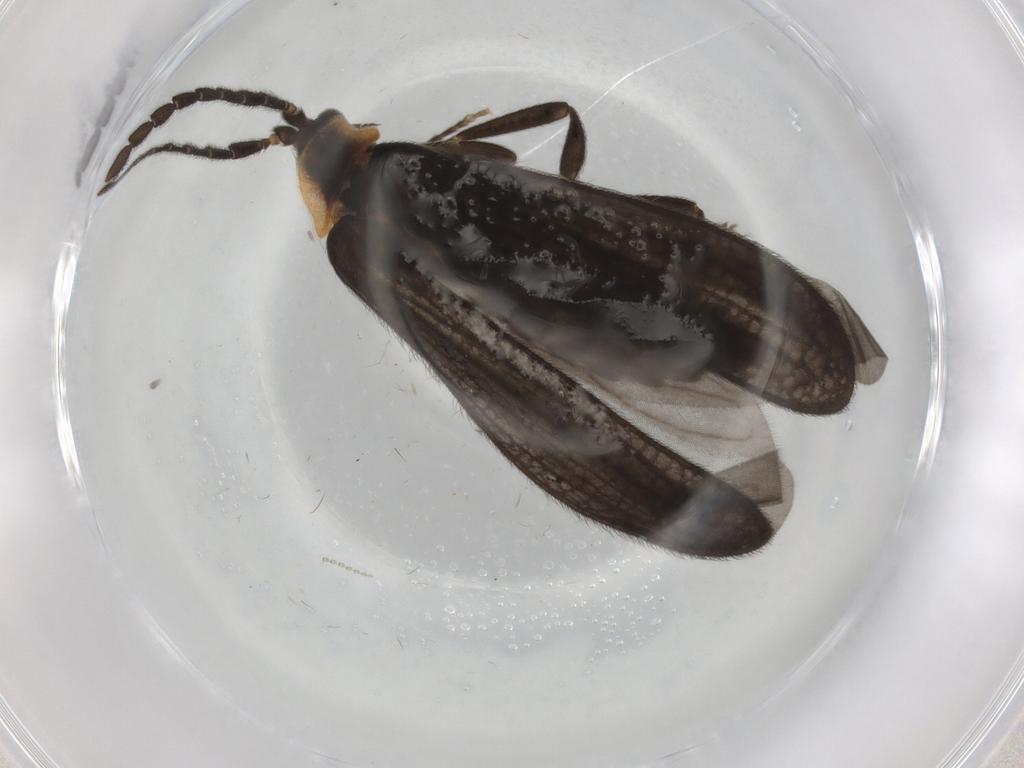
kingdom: Animalia
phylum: Arthropoda
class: Insecta
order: Coleoptera
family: Lycidae
